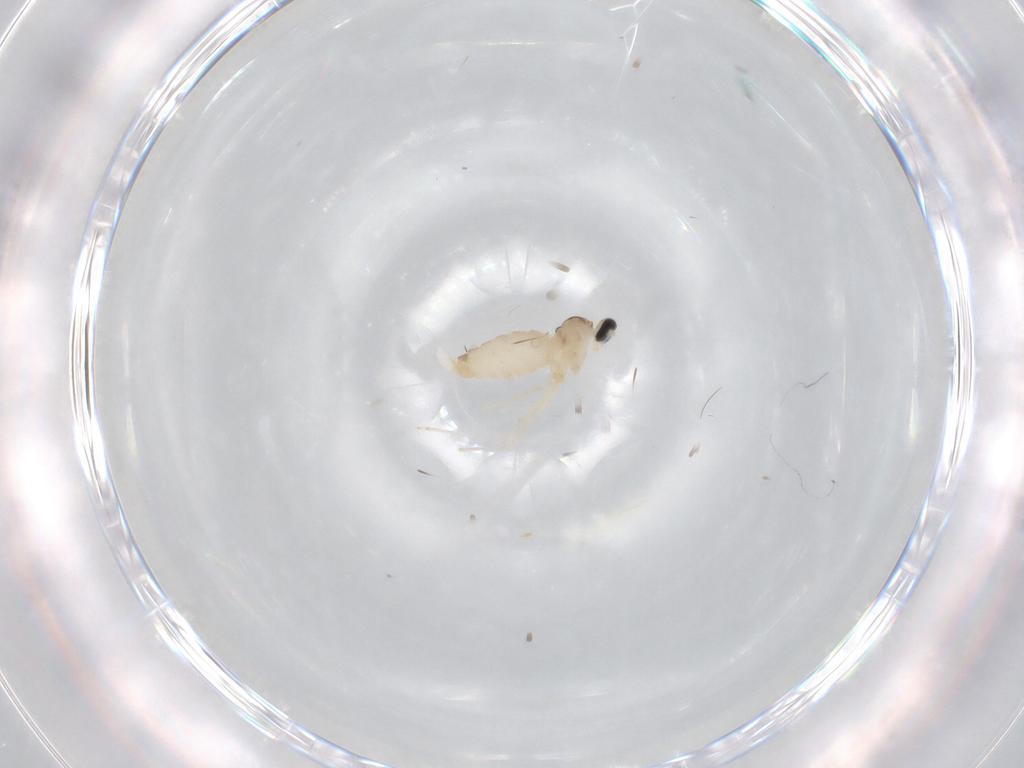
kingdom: Animalia
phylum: Arthropoda
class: Insecta
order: Diptera
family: Cecidomyiidae
